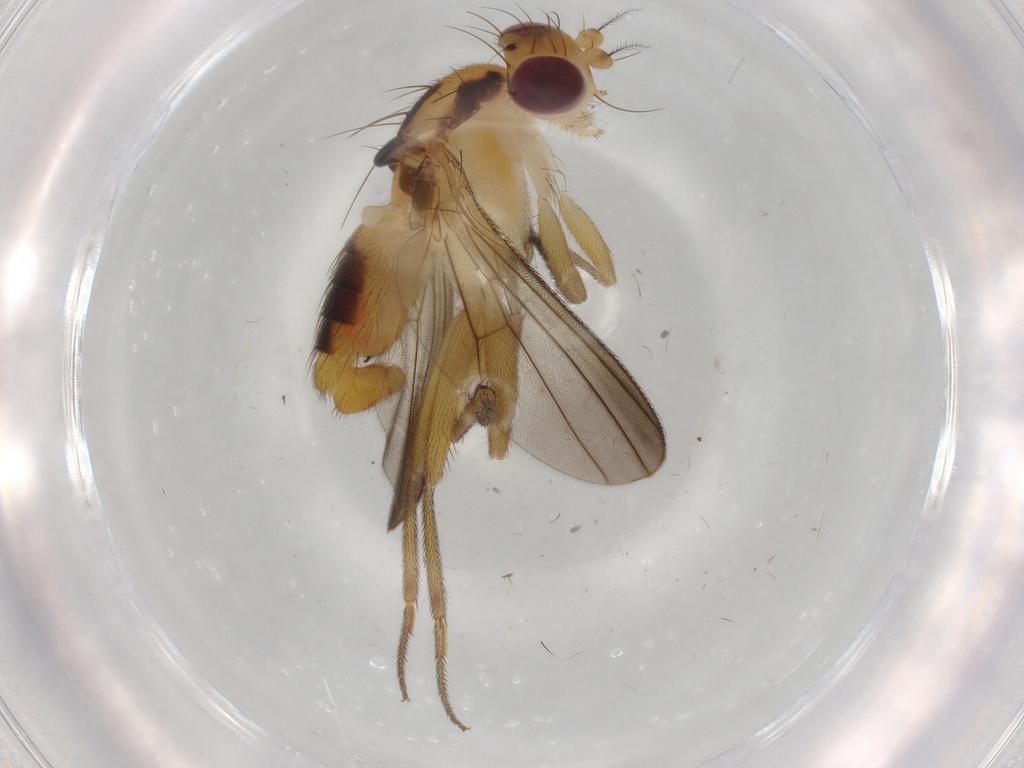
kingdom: Animalia
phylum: Arthropoda
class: Insecta
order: Diptera
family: Clusiidae
